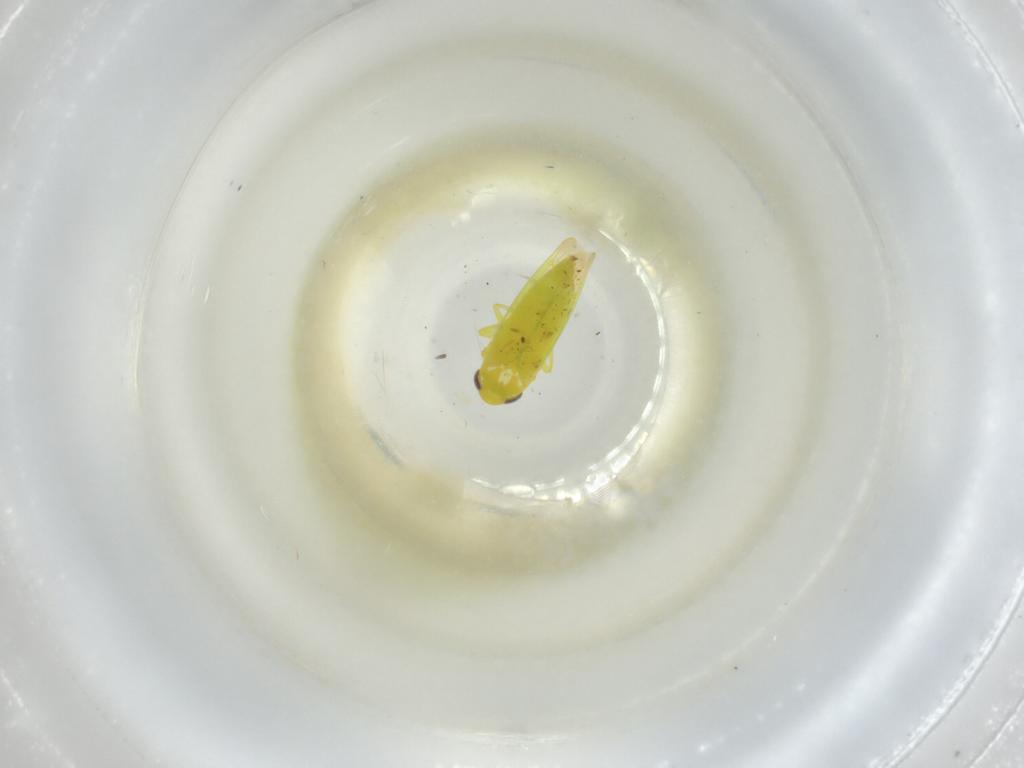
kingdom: Animalia
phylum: Arthropoda
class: Insecta
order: Hemiptera
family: Cicadellidae
